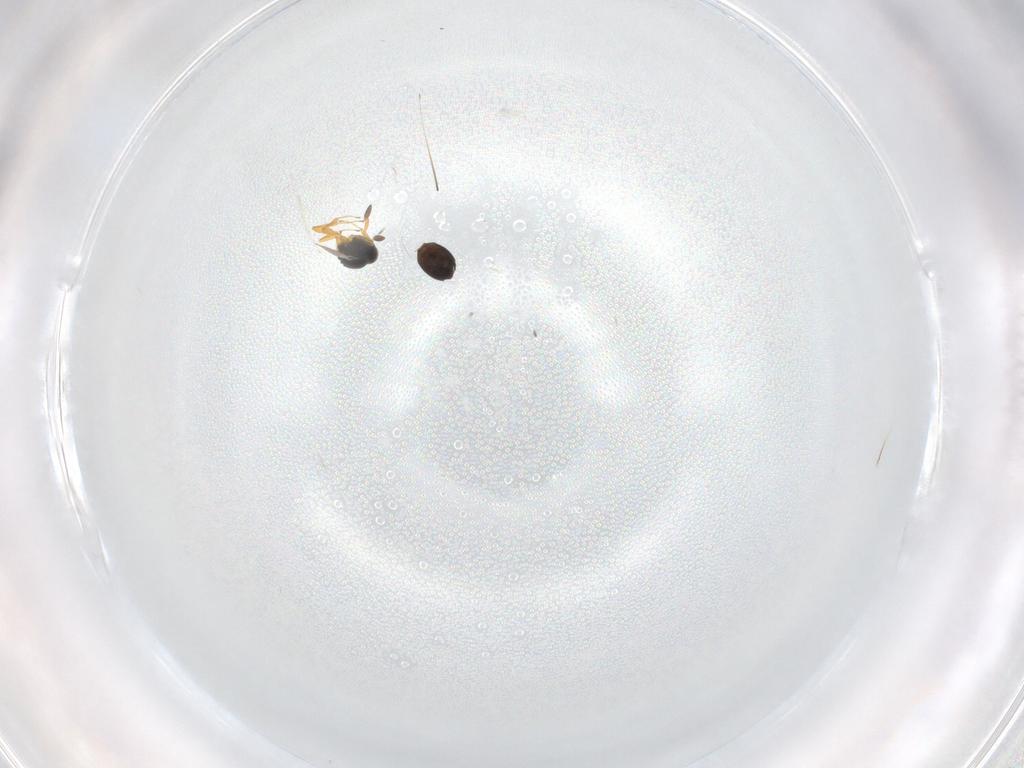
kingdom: Animalia
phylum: Arthropoda
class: Insecta
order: Hymenoptera
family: Platygastridae
